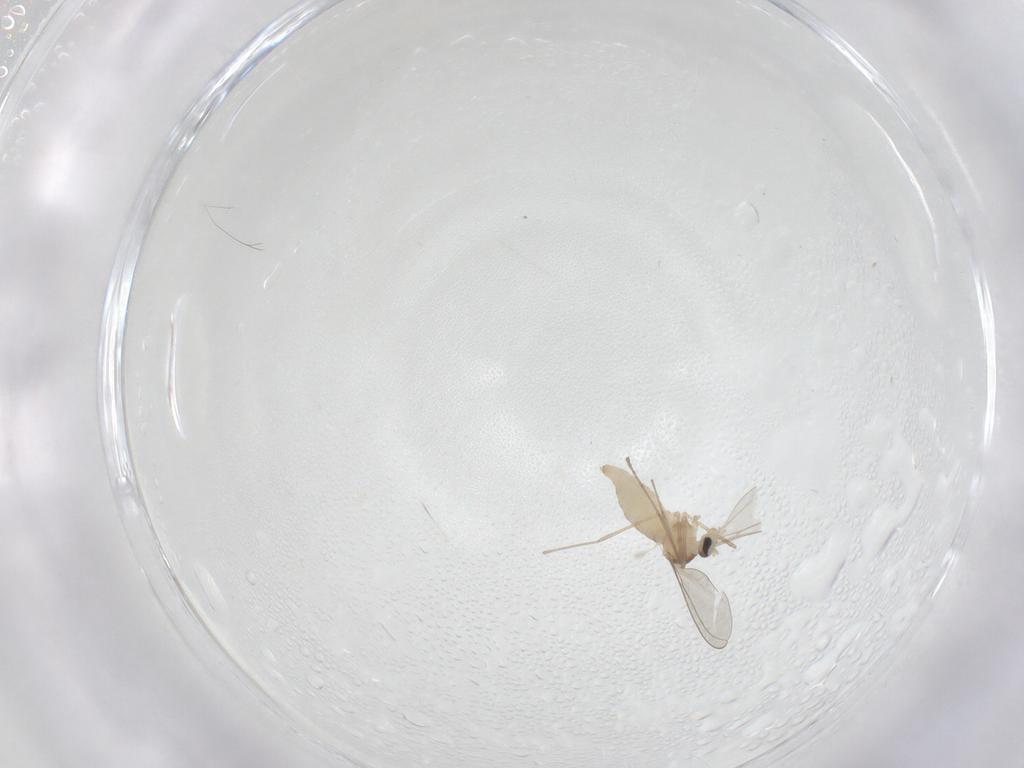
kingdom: Animalia
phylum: Arthropoda
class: Insecta
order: Diptera
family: Cecidomyiidae
